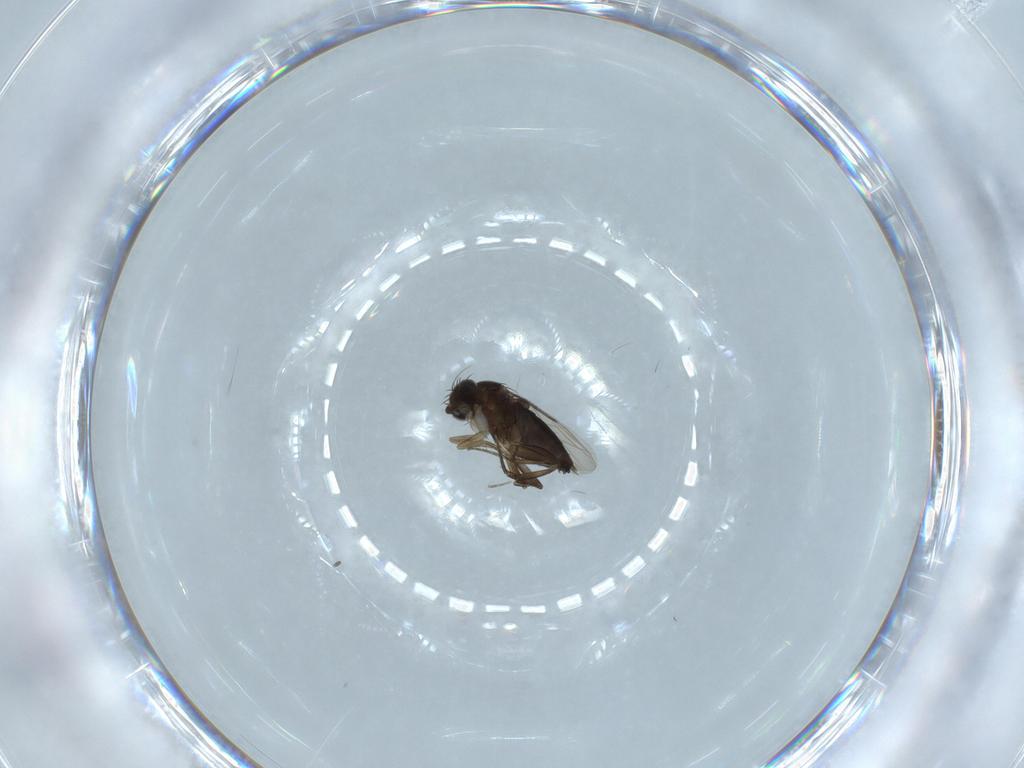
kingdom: Animalia
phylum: Arthropoda
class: Insecta
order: Diptera
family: Phoridae
